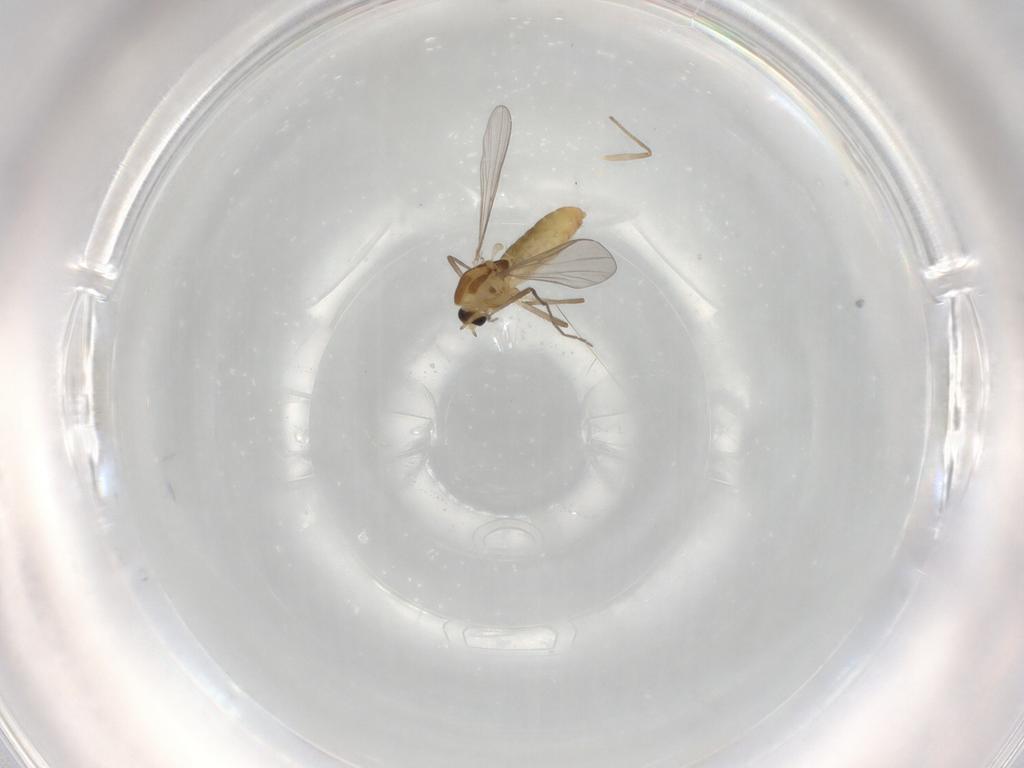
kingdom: Animalia
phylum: Arthropoda
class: Insecta
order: Diptera
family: Chironomidae
